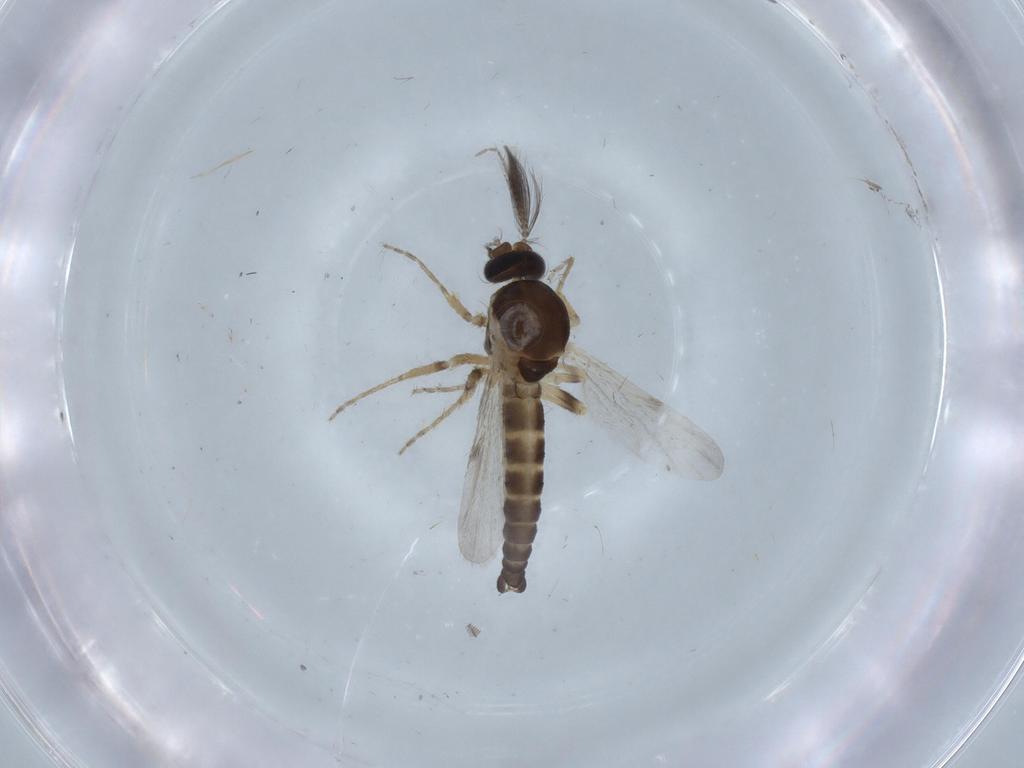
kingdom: Animalia
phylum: Arthropoda
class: Insecta
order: Diptera
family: Ceratopogonidae
